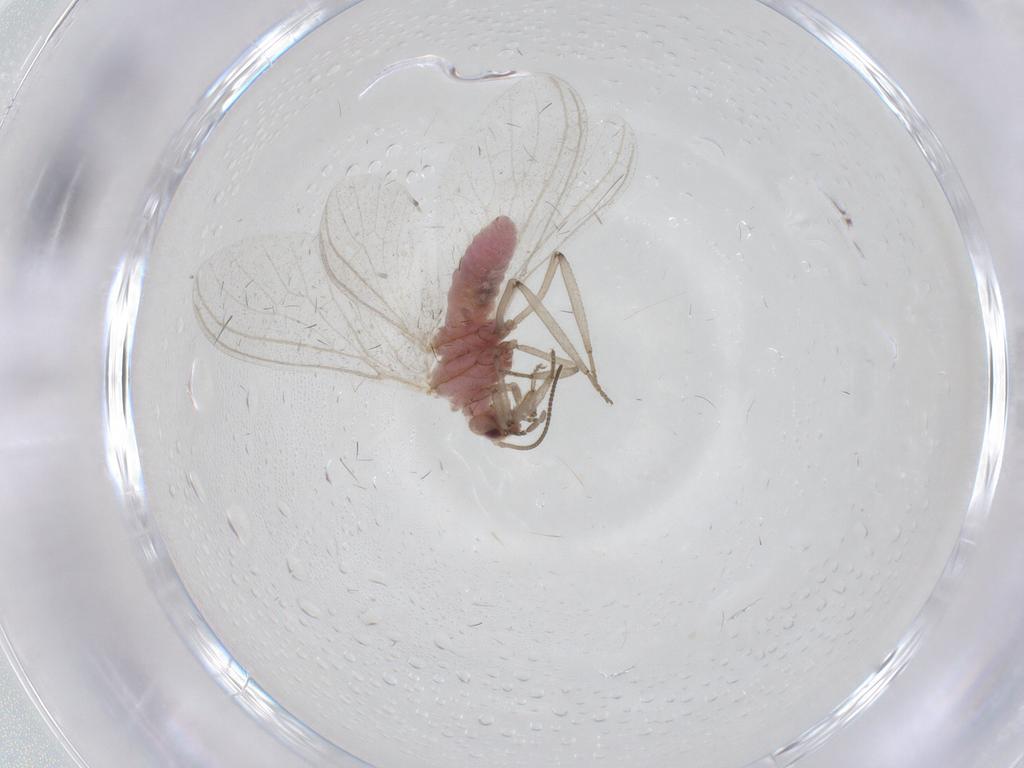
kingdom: Animalia
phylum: Arthropoda
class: Insecta
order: Neuroptera
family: Coniopterygidae
